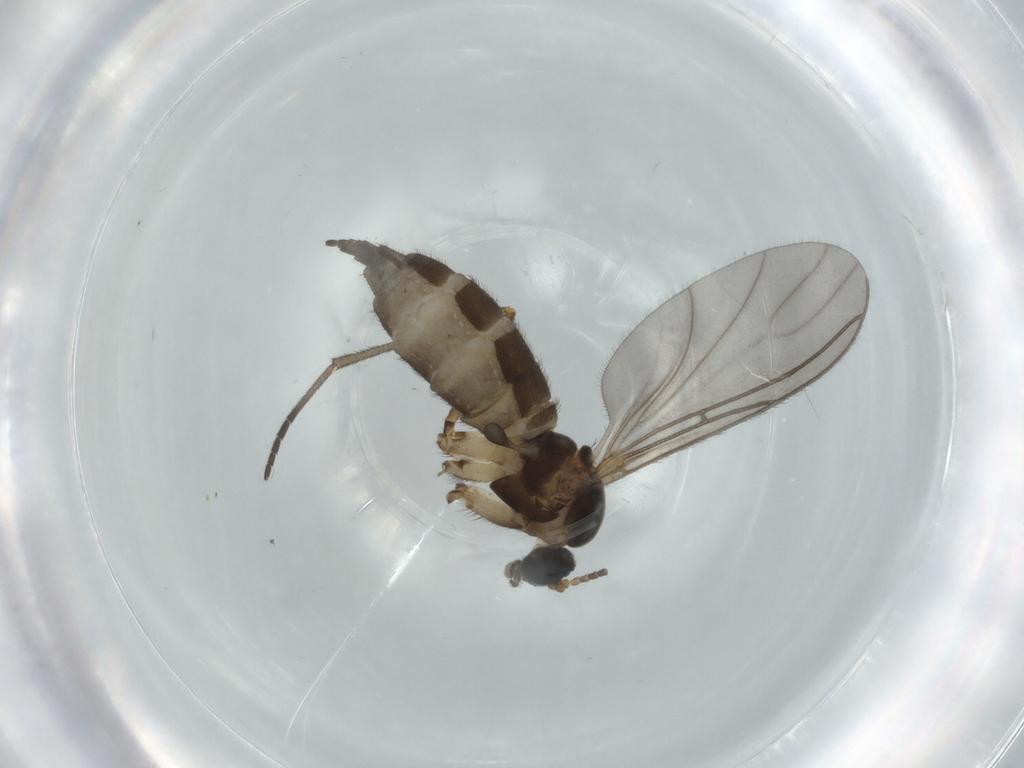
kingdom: Animalia
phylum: Arthropoda
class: Insecta
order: Diptera
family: Sciaridae
